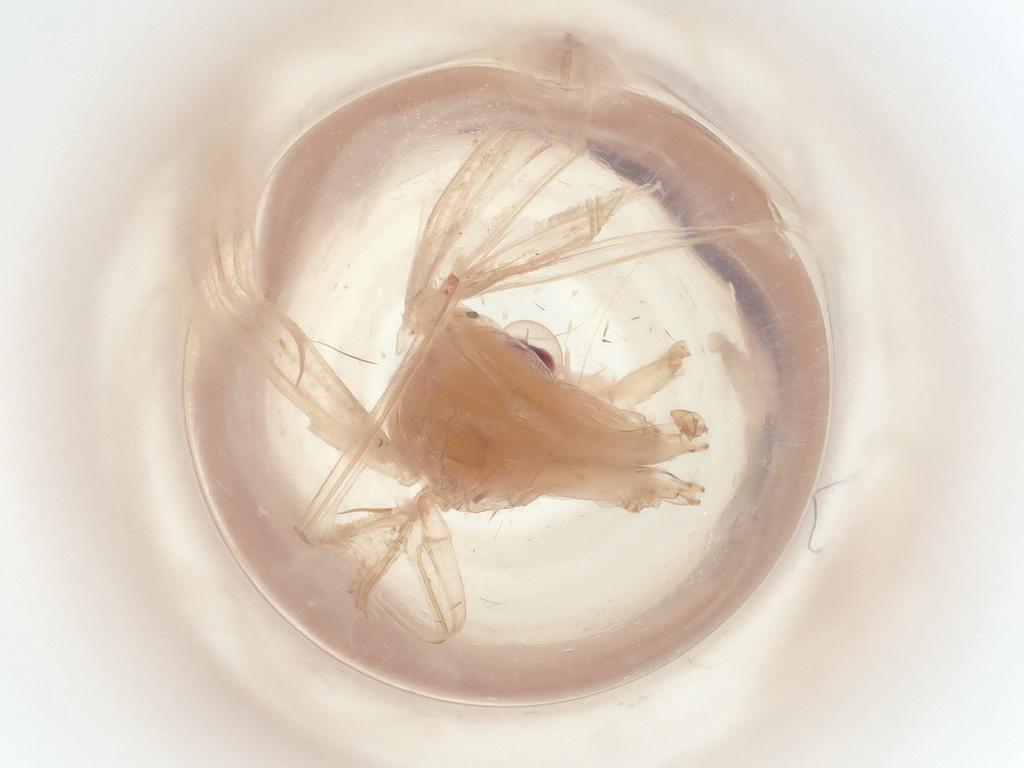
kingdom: Animalia
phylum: Arthropoda
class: Insecta
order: Lepidoptera
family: Pterophoridae
